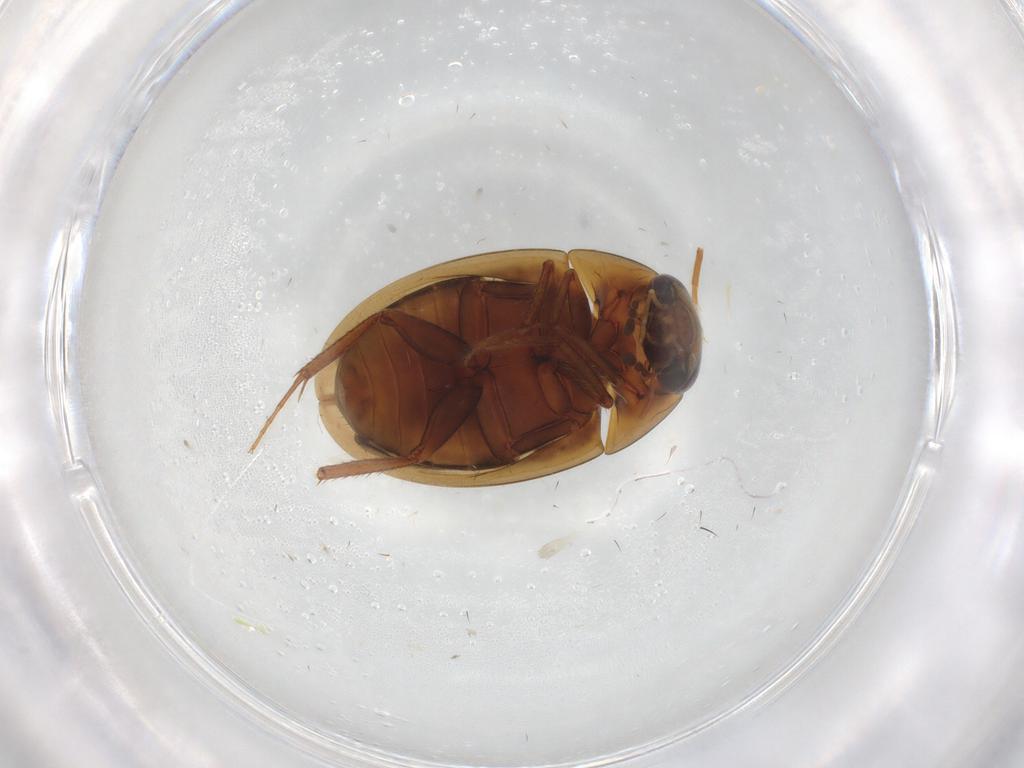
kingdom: Animalia
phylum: Arthropoda
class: Insecta
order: Coleoptera
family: Hydrophilidae
